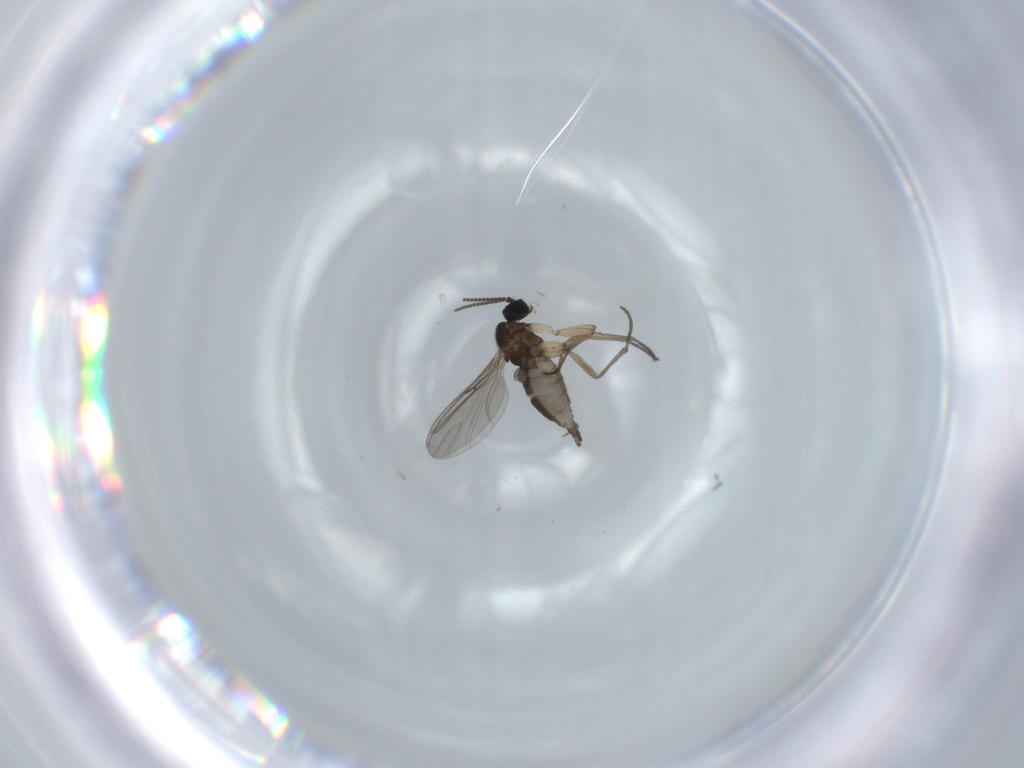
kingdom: Animalia
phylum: Arthropoda
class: Insecta
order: Diptera
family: Sciaridae
